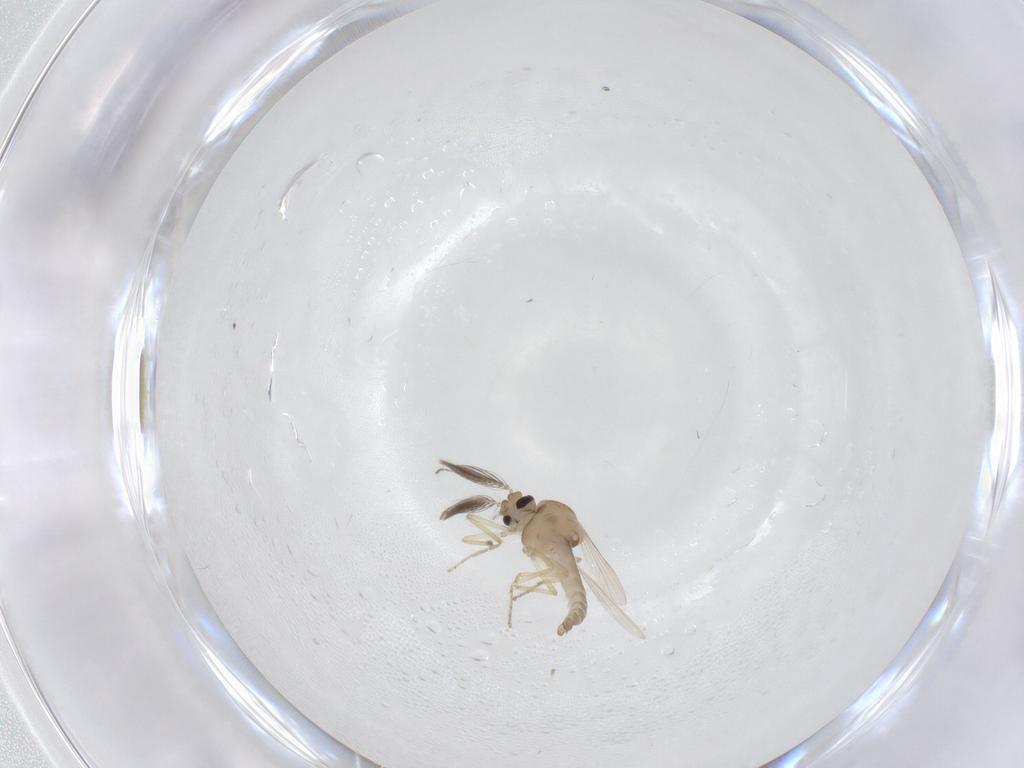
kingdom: Animalia
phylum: Arthropoda
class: Insecta
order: Diptera
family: Ceratopogonidae
